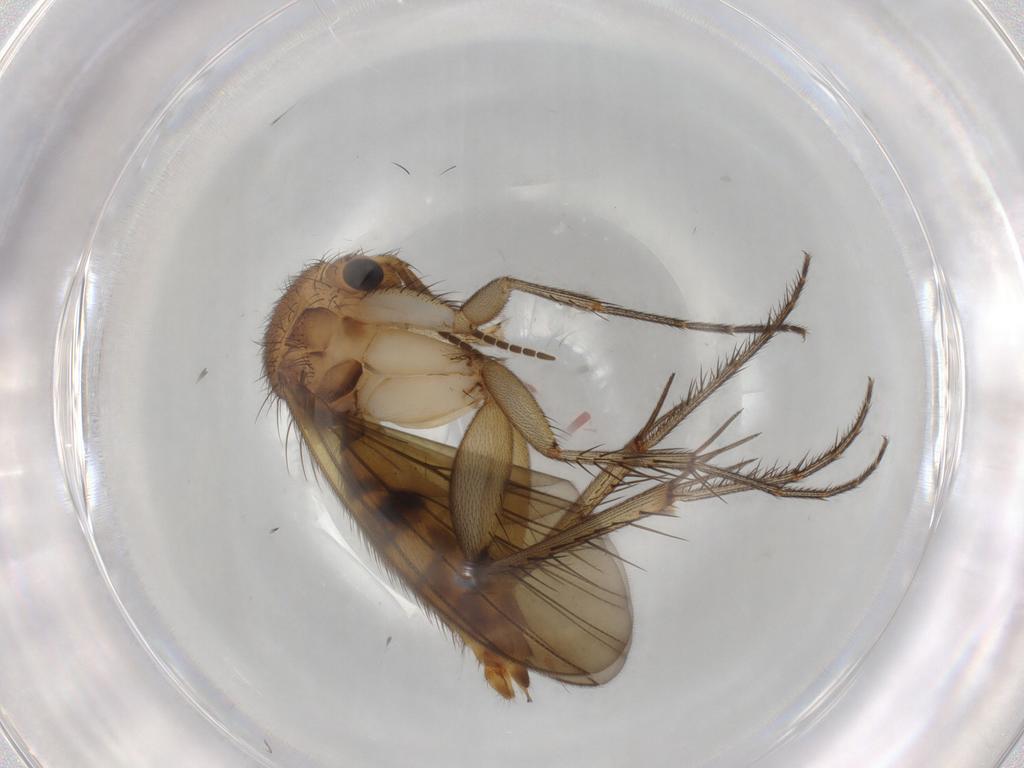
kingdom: Animalia
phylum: Arthropoda
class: Insecta
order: Diptera
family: Mycetophilidae
